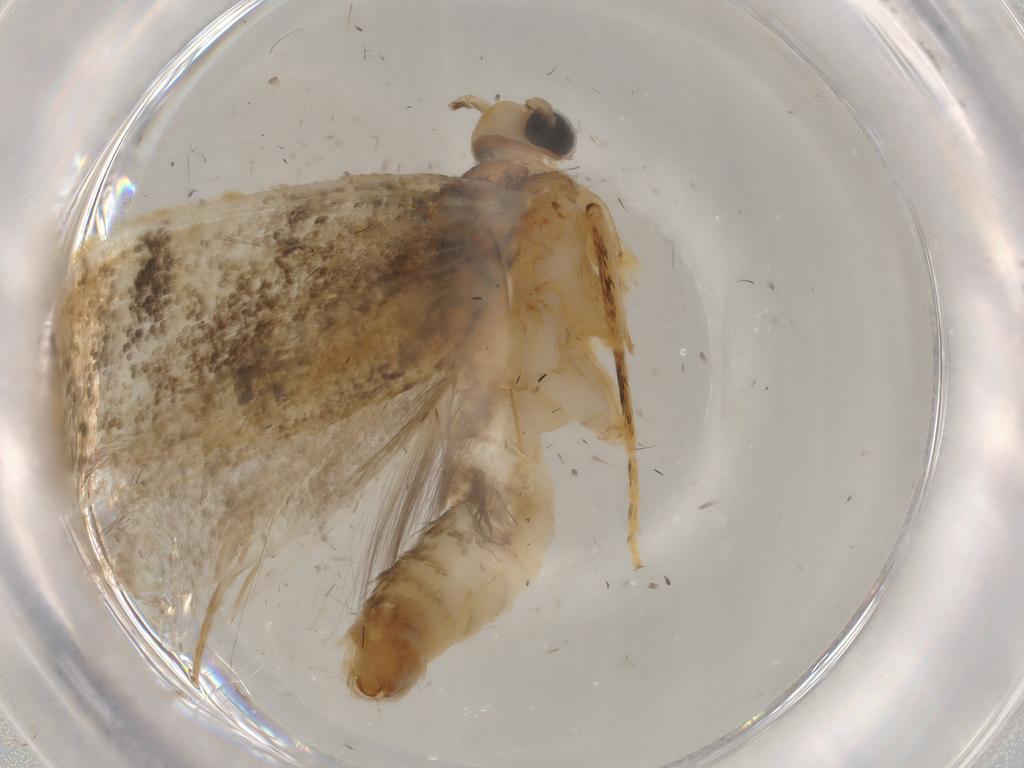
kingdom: Animalia
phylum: Arthropoda
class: Insecta
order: Lepidoptera
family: Tineidae
